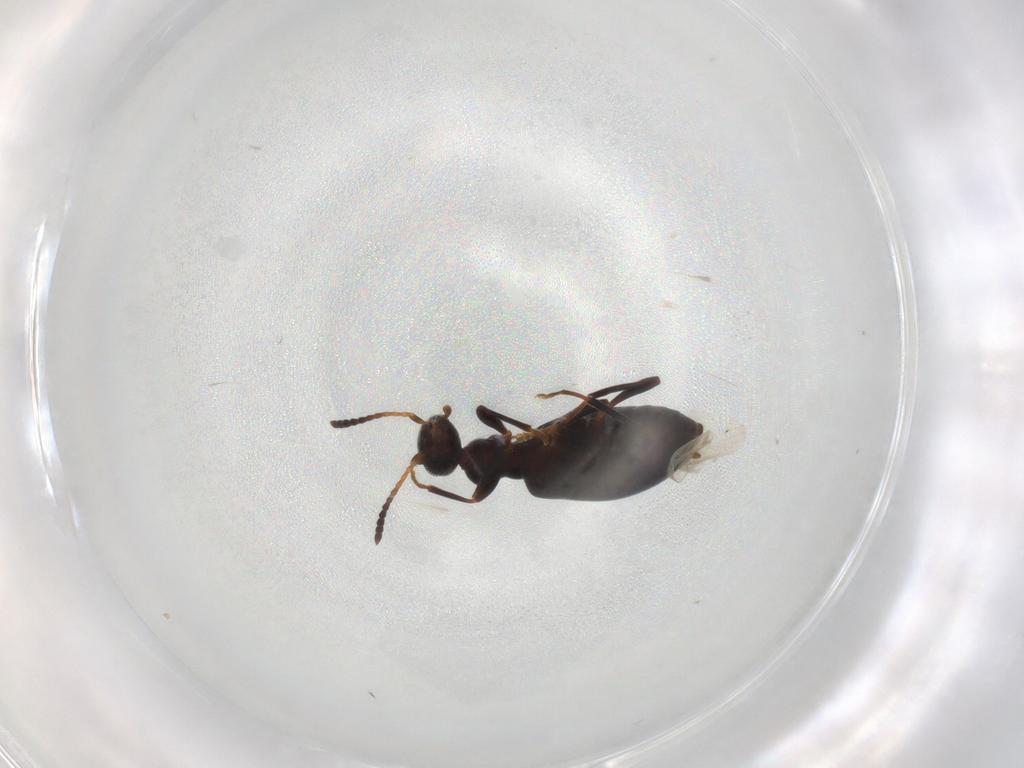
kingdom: Animalia
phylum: Arthropoda
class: Insecta
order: Coleoptera
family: Anthicidae
